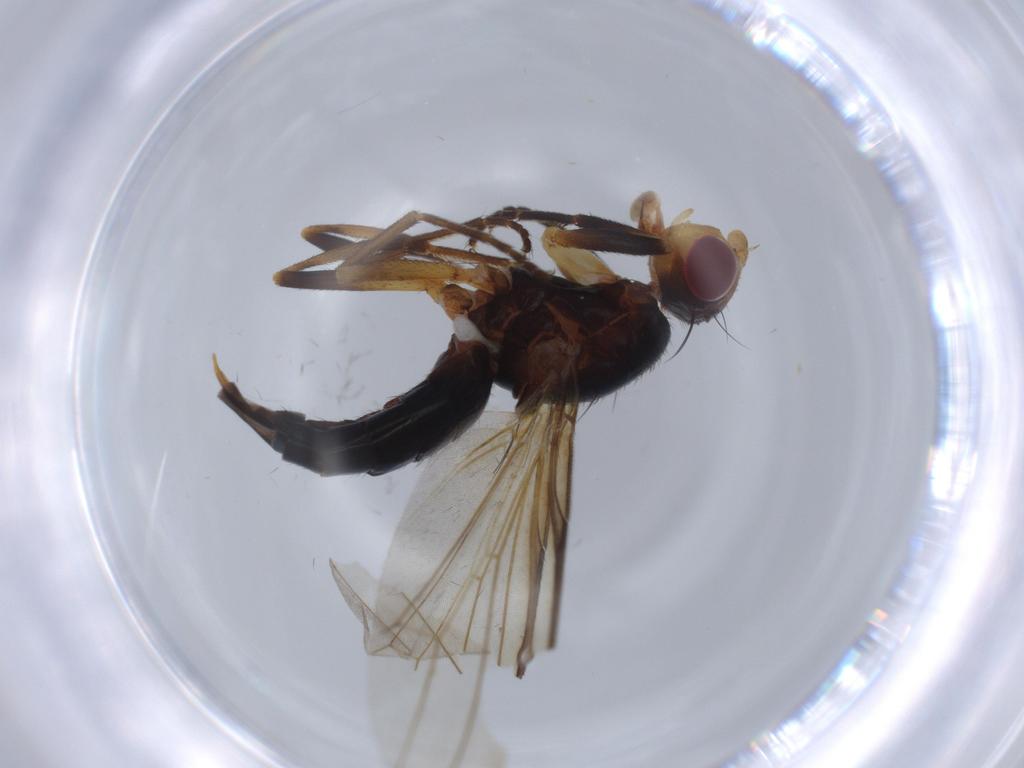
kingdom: Animalia
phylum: Arthropoda
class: Insecta
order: Diptera
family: Piophilidae
